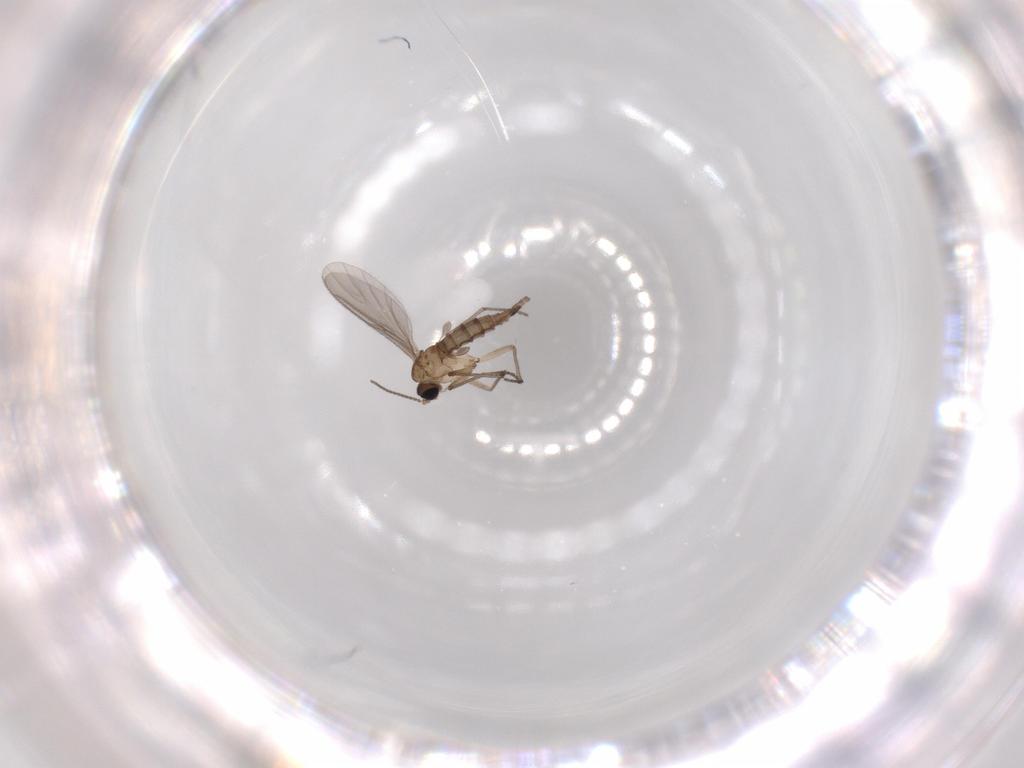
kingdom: Animalia
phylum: Arthropoda
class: Insecta
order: Diptera
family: Sciaridae
